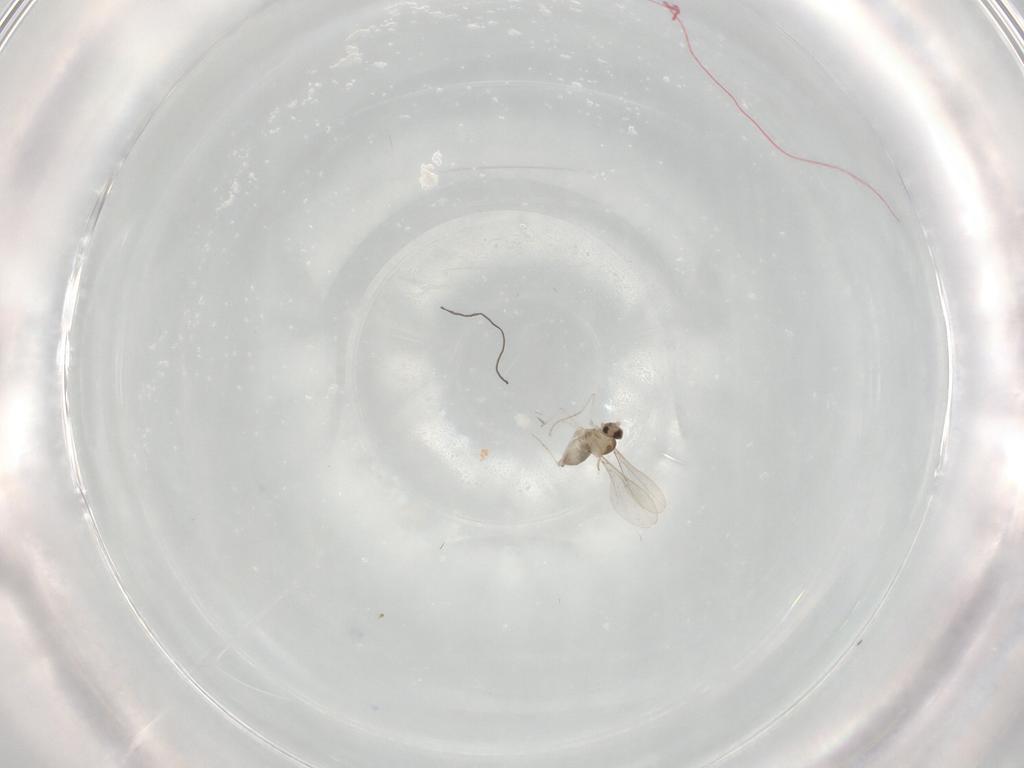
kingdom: Animalia
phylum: Arthropoda
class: Insecta
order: Diptera
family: Cecidomyiidae
